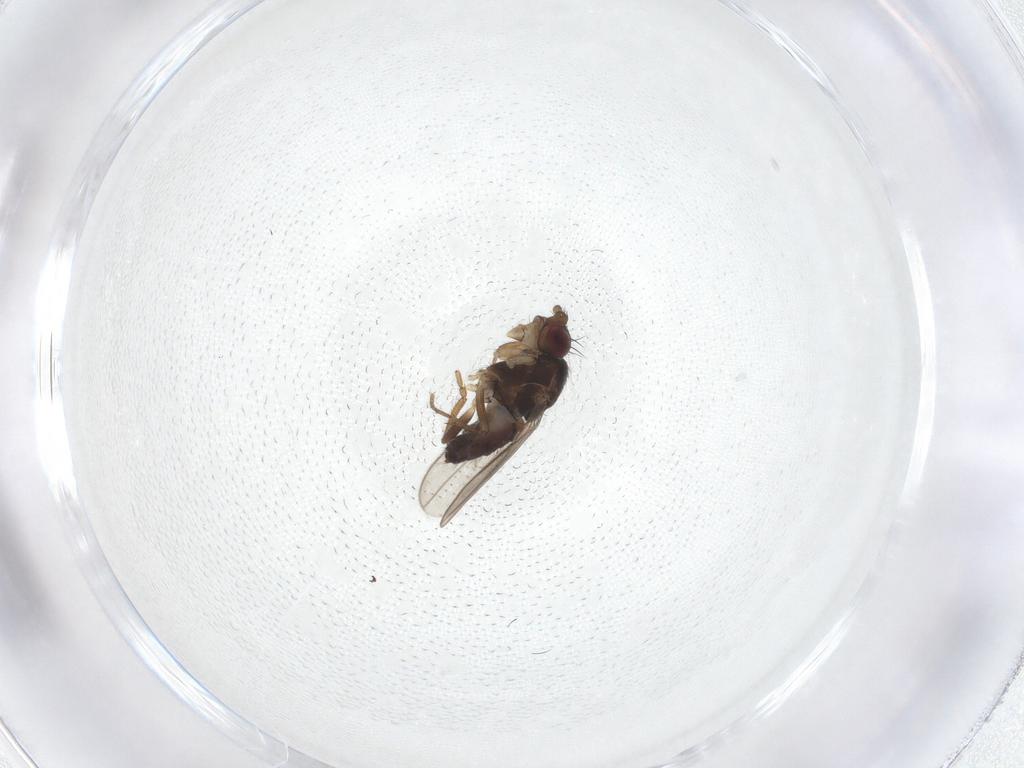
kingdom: Animalia
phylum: Arthropoda
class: Insecta
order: Diptera
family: Sphaeroceridae
